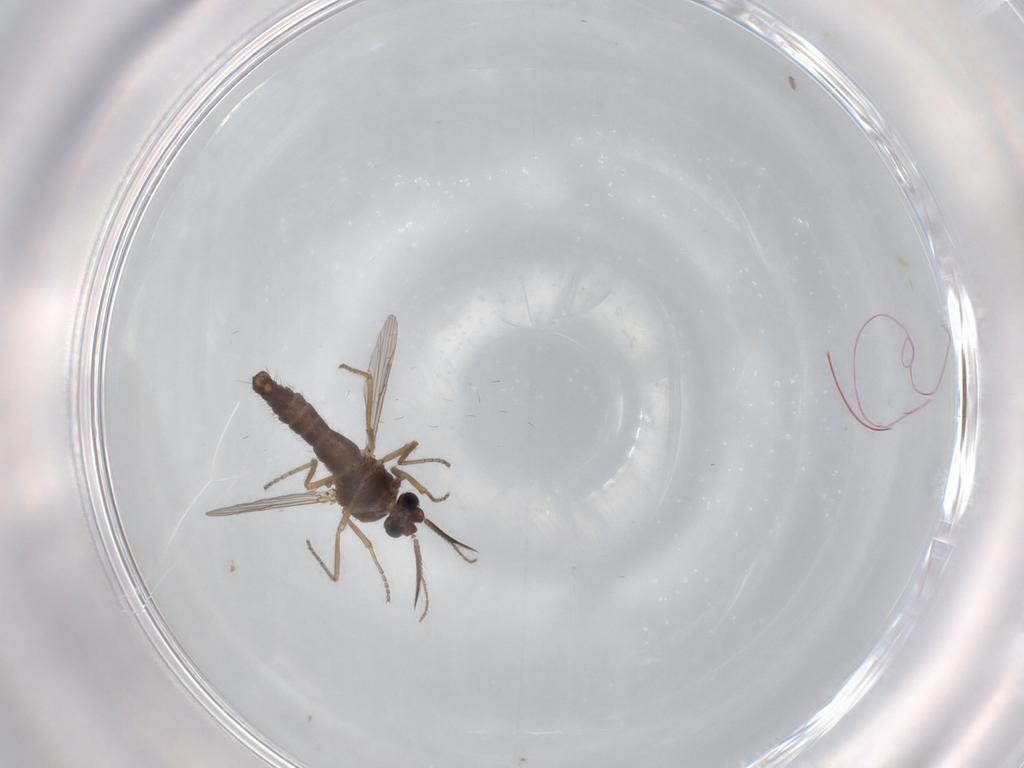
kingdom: Animalia
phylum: Arthropoda
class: Insecta
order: Diptera
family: Ceratopogonidae
